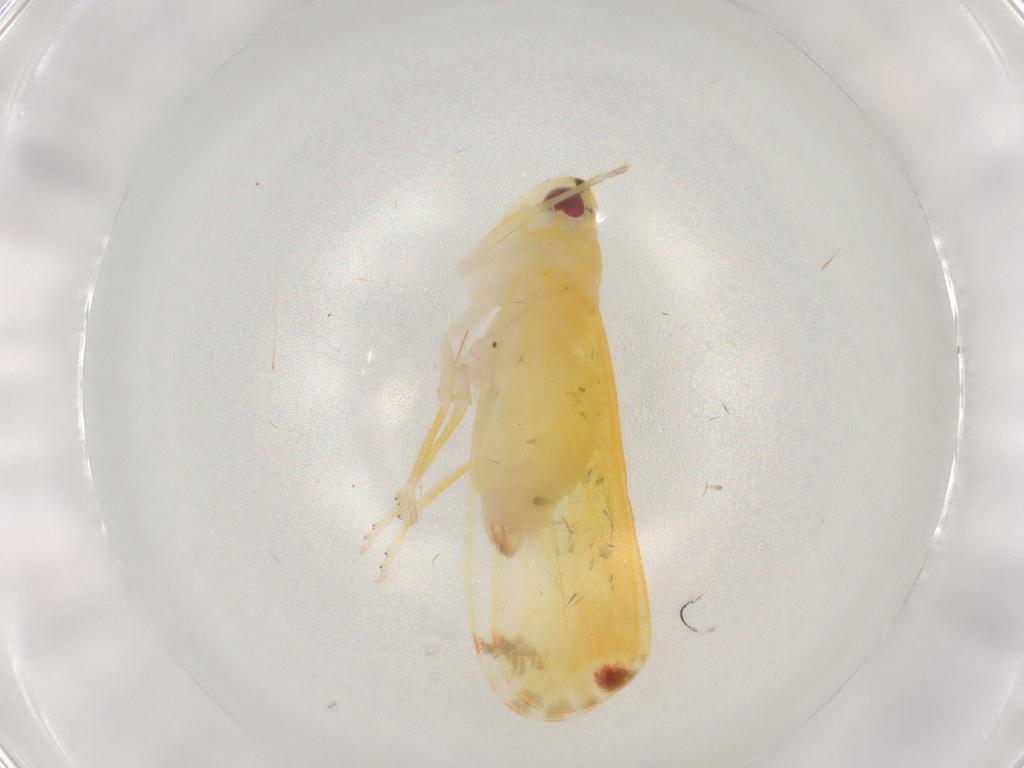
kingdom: Animalia
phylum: Arthropoda
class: Insecta
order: Hemiptera
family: Derbidae
